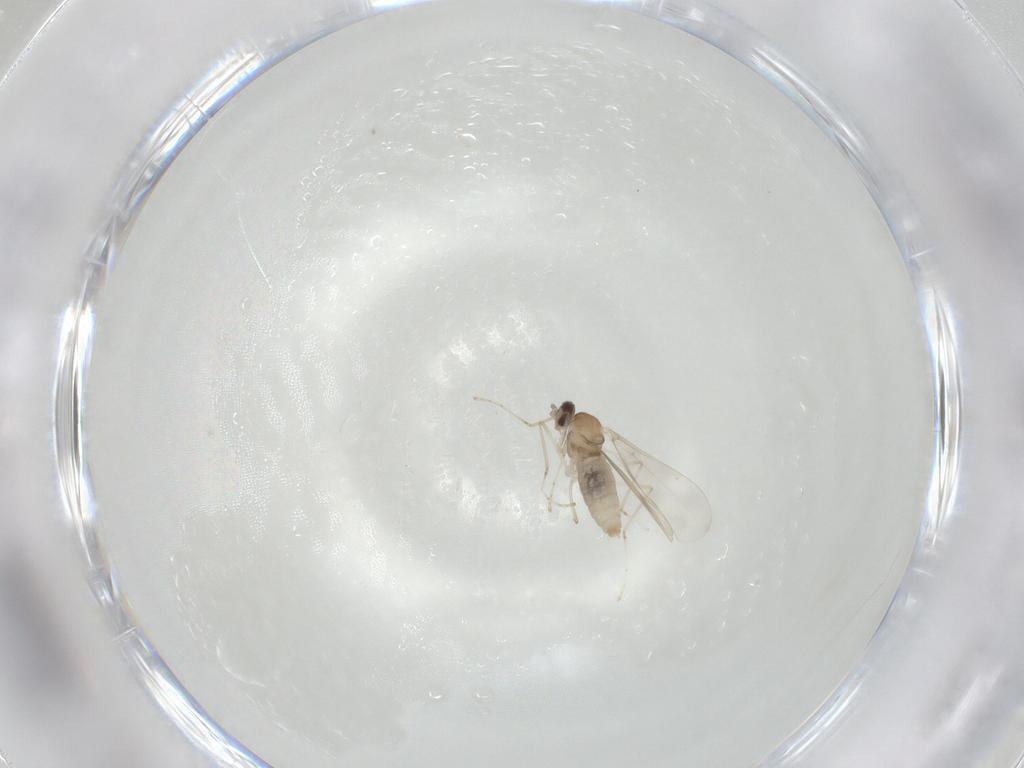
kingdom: Animalia
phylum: Arthropoda
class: Insecta
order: Diptera
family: Cecidomyiidae
